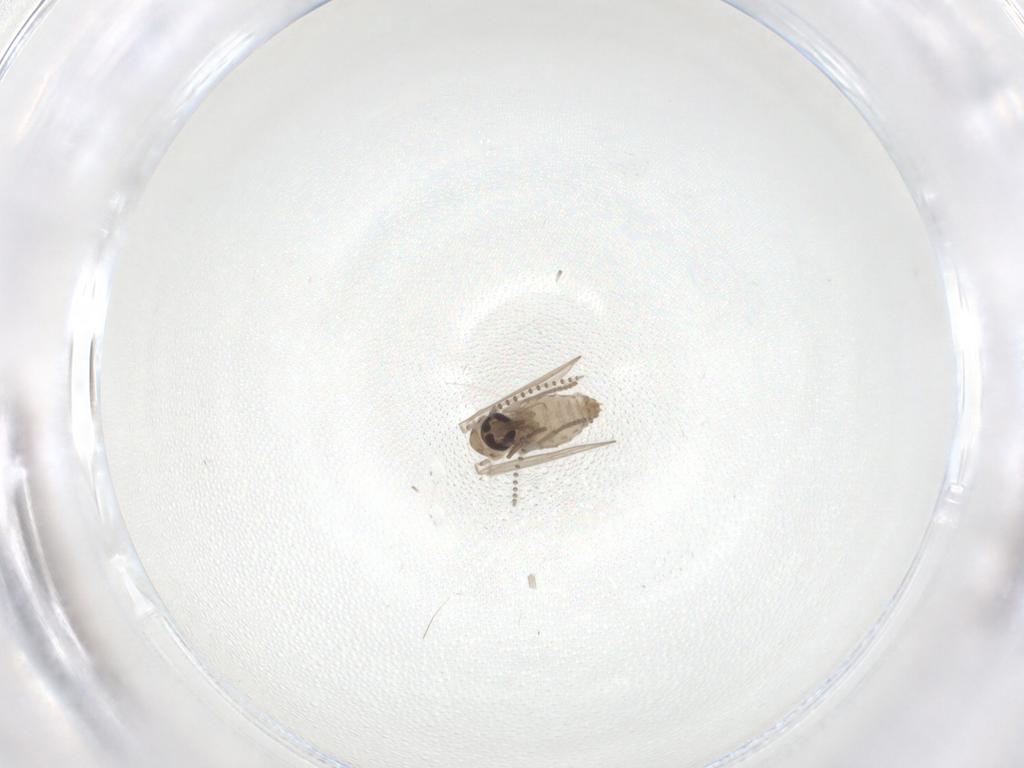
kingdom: Animalia
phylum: Arthropoda
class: Insecta
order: Diptera
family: Psychodidae
